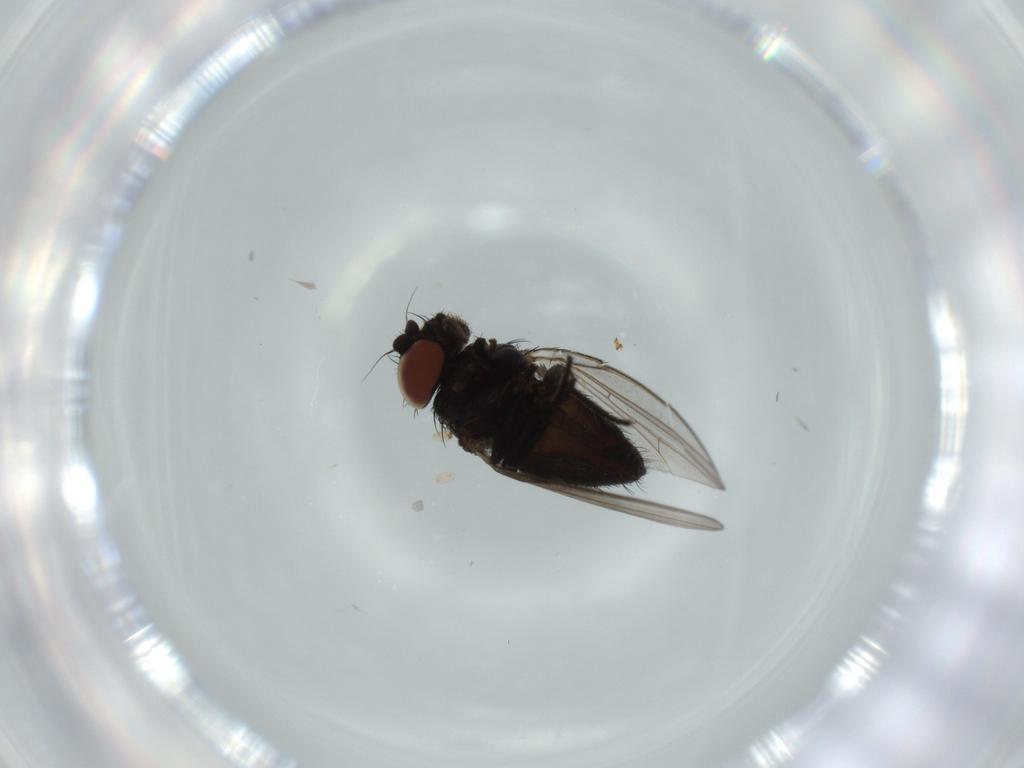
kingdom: Animalia
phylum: Arthropoda
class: Insecta
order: Diptera
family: Milichiidae
